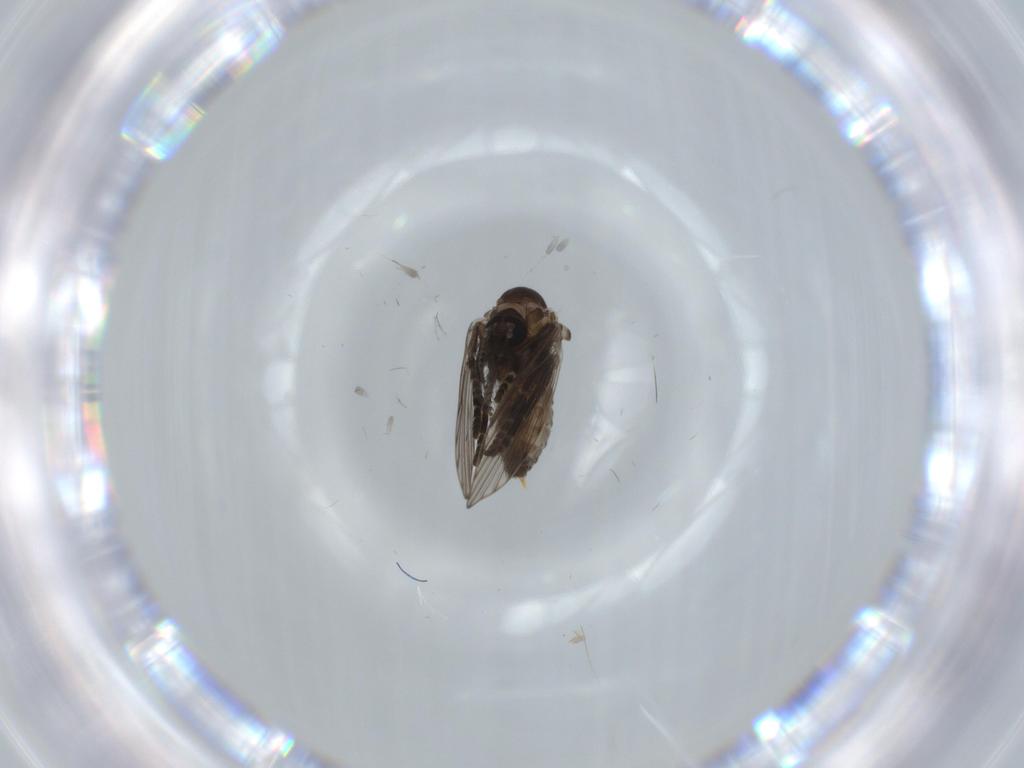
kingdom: Animalia
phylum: Arthropoda
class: Insecta
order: Diptera
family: Psychodidae
